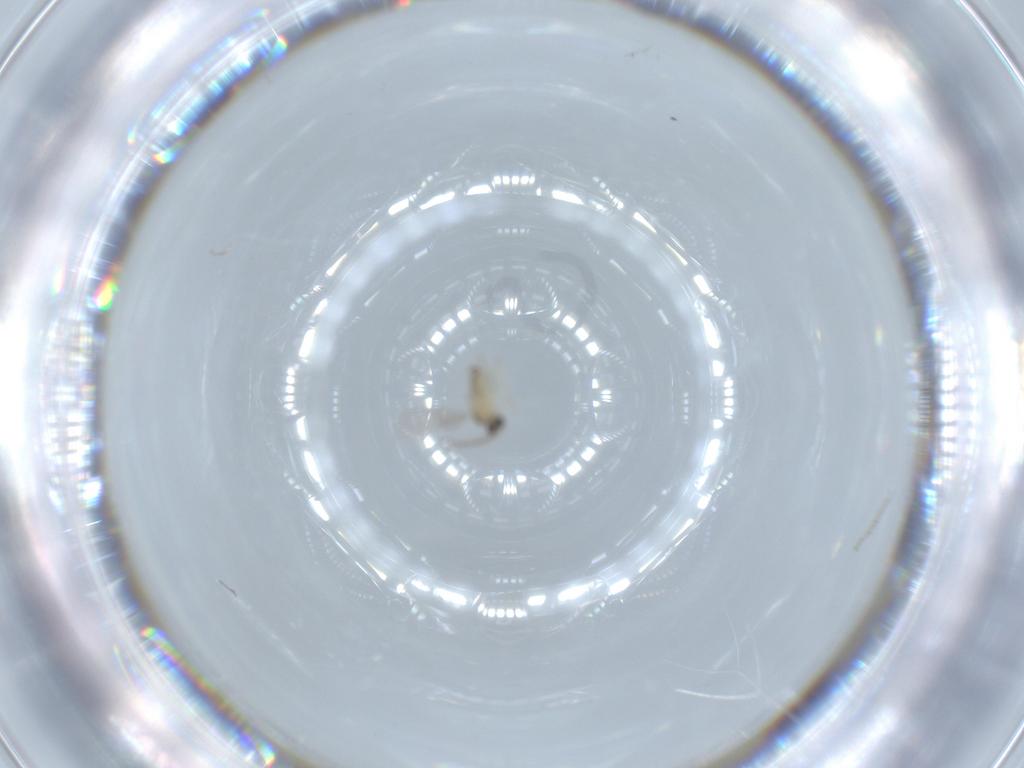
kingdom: Animalia
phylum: Arthropoda
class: Insecta
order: Diptera
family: Cecidomyiidae
